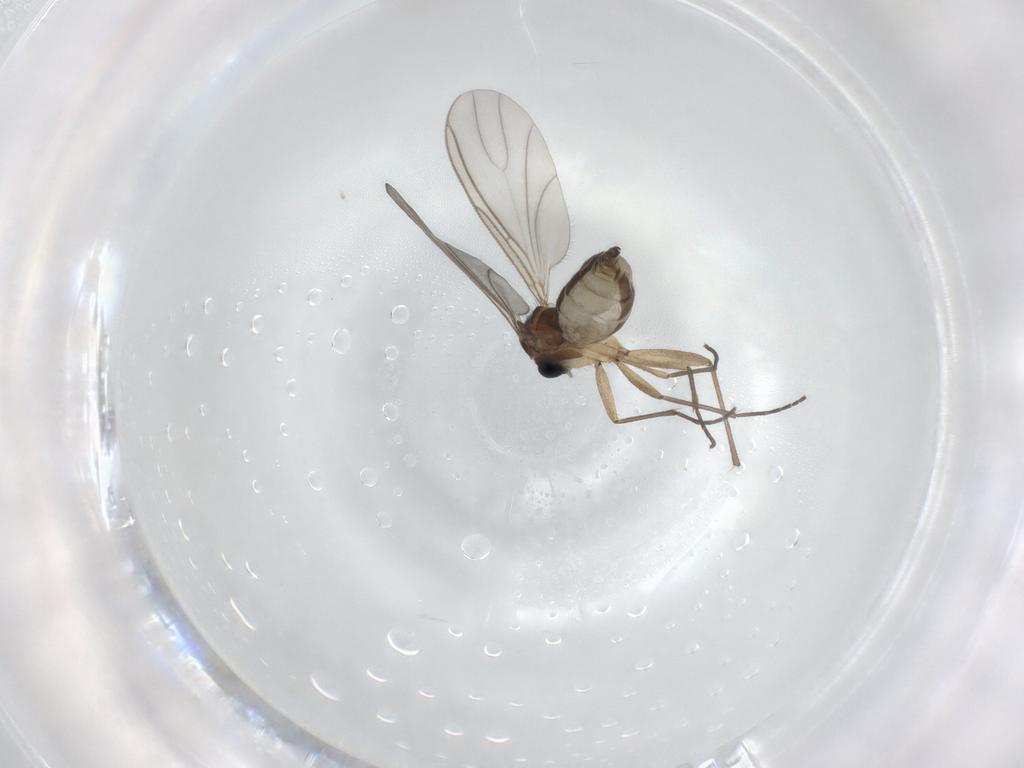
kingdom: Animalia
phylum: Arthropoda
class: Insecta
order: Diptera
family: Sciaridae
